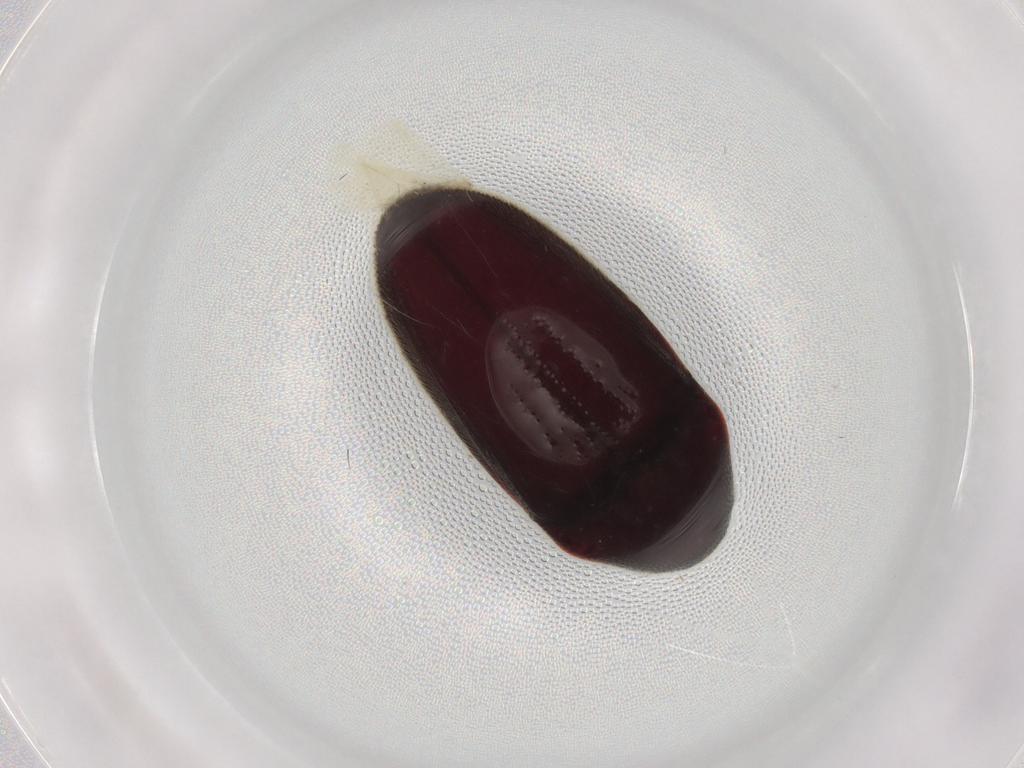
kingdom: Animalia
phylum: Arthropoda
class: Insecta
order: Coleoptera
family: Throscidae
